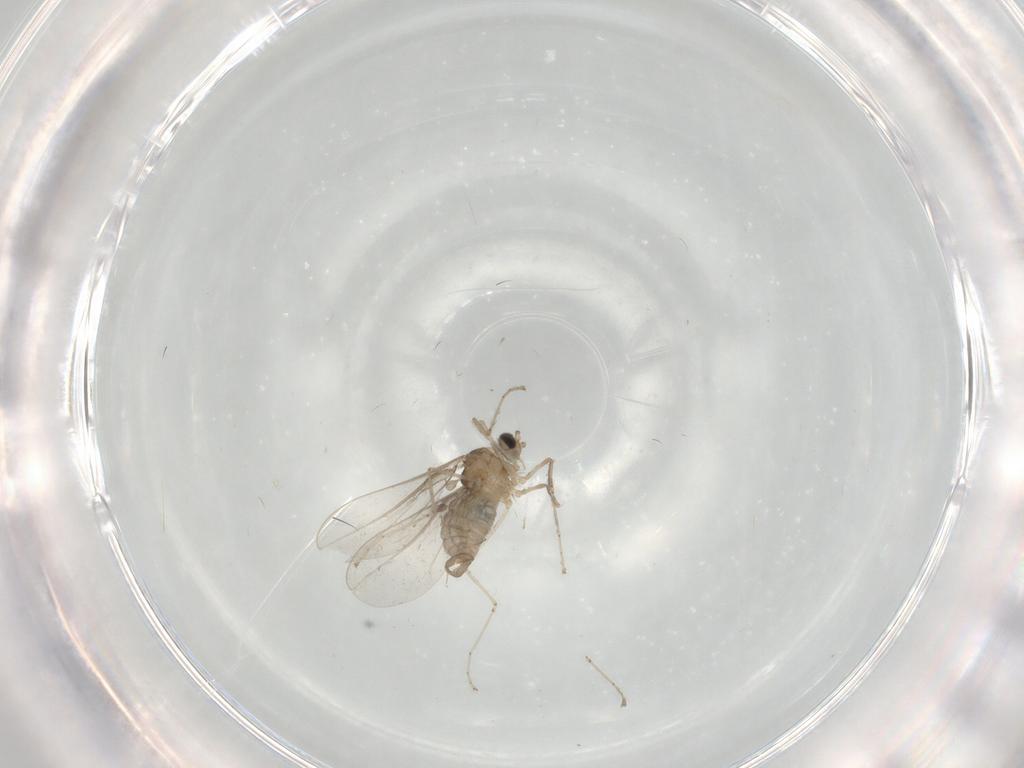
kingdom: Animalia
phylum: Arthropoda
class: Insecta
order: Diptera
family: Cecidomyiidae
